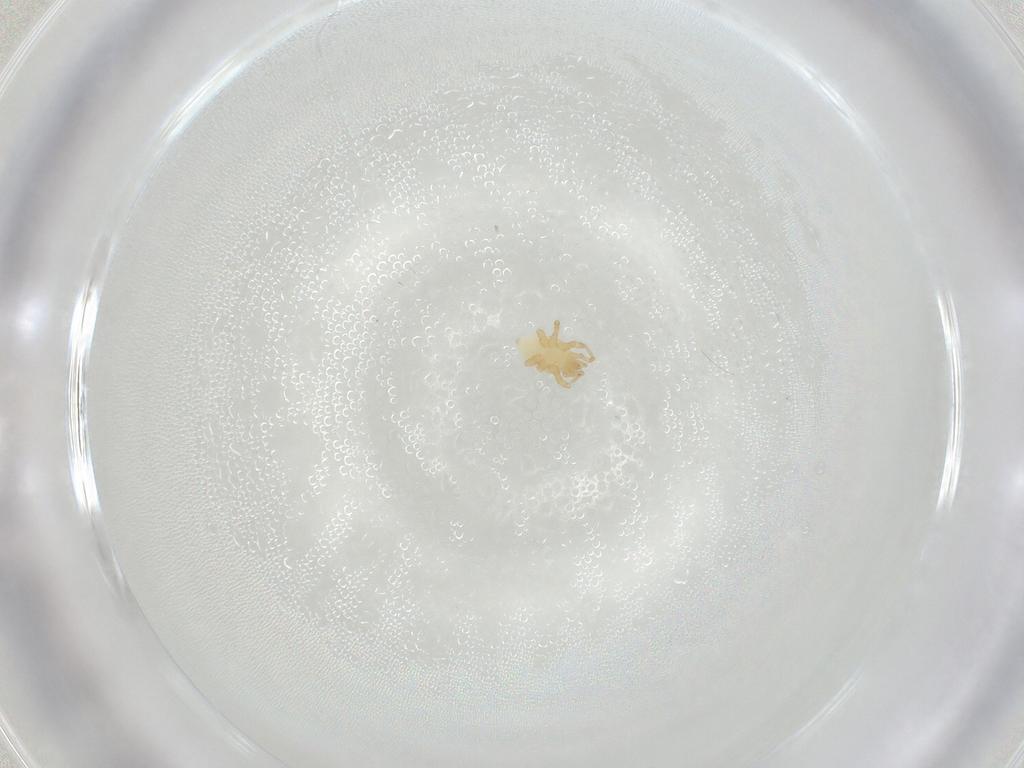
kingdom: Animalia
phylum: Arthropoda
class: Arachnida
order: Mesostigmata
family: Parasitidae
